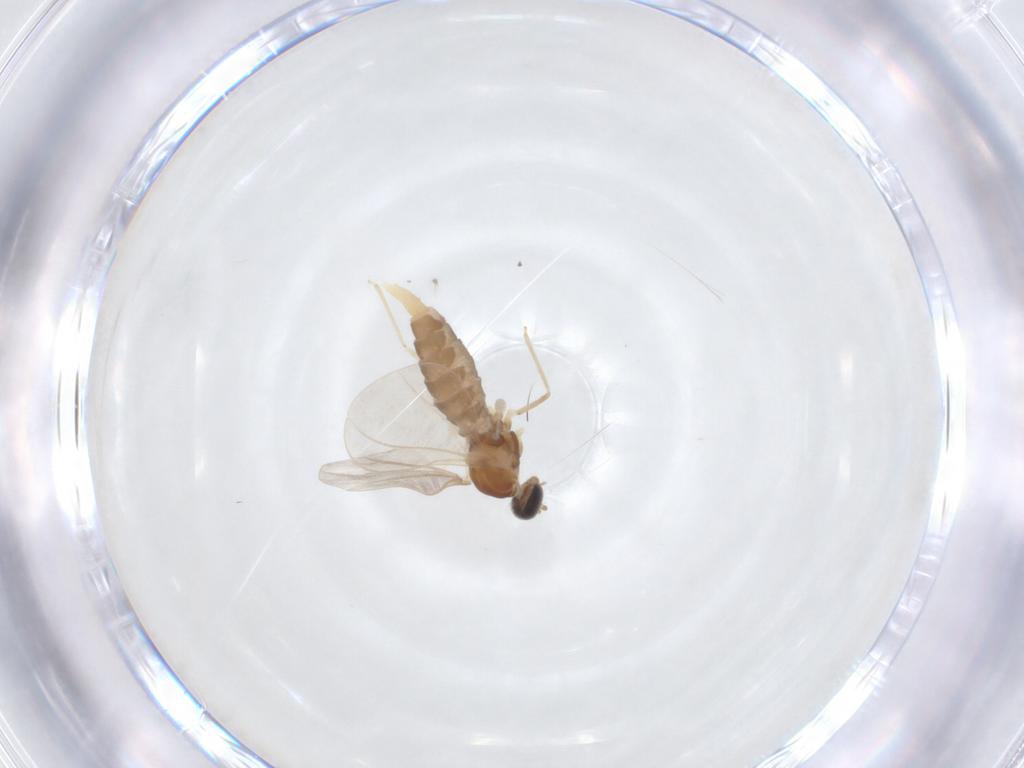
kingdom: Animalia
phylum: Arthropoda
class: Insecta
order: Diptera
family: Cecidomyiidae
